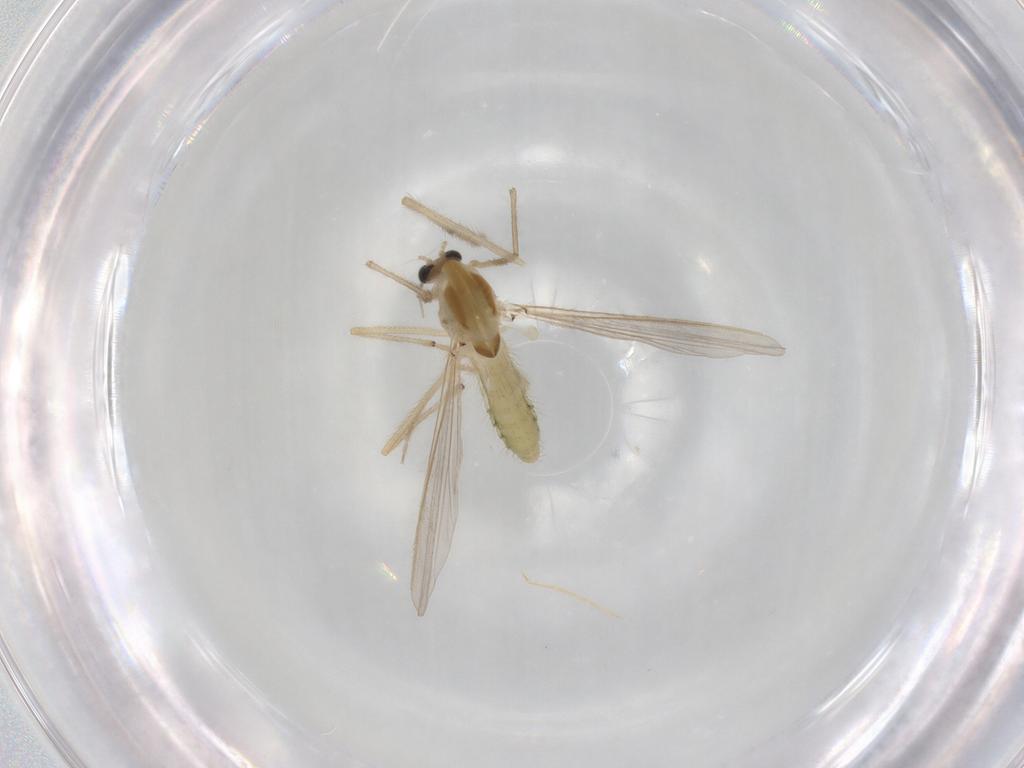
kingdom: Animalia
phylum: Arthropoda
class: Insecta
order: Diptera
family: Chironomidae
